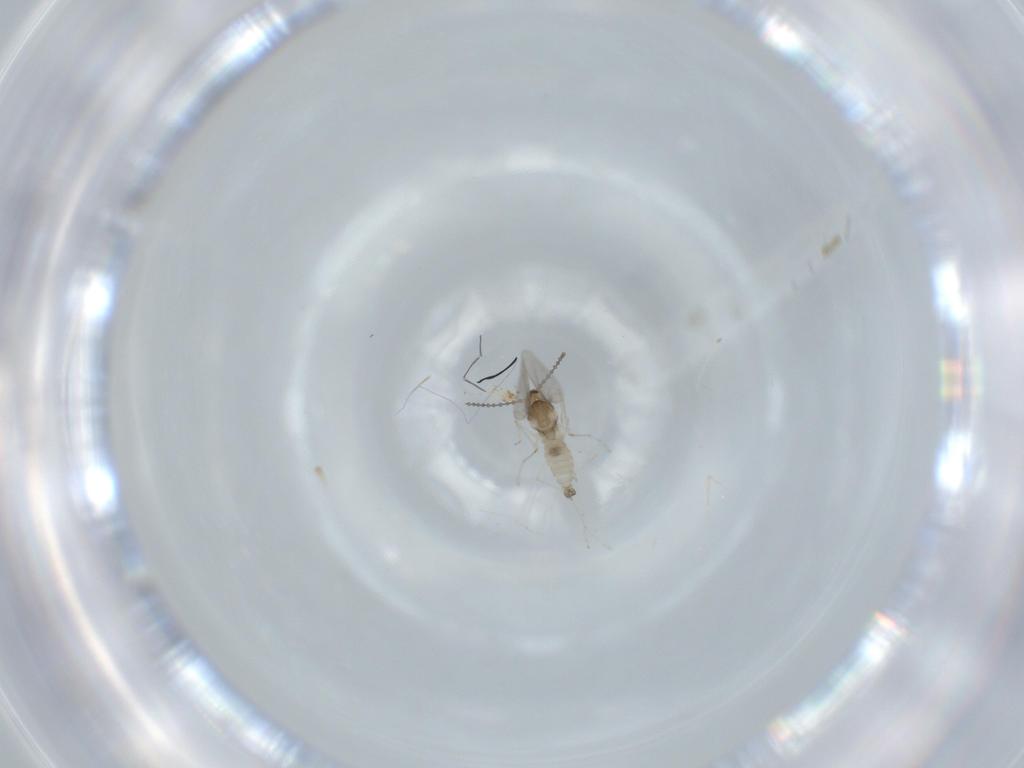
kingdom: Animalia
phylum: Arthropoda
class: Insecta
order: Diptera
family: Cecidomyiidae
